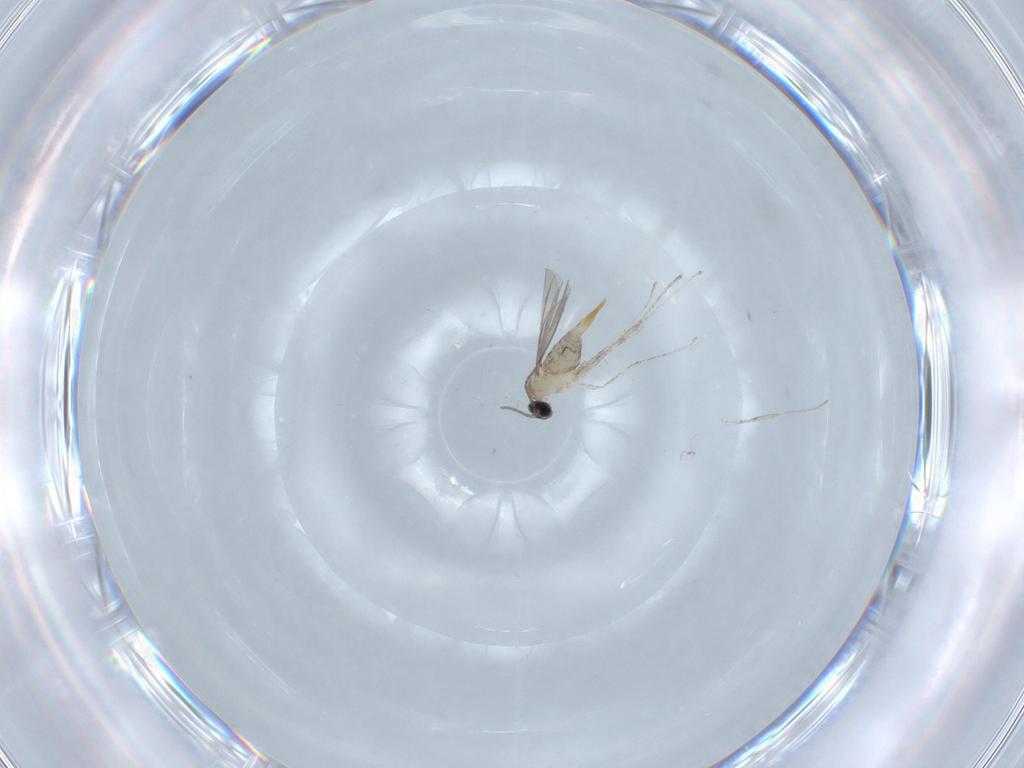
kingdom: Animalia
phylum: Arthropoda
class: Insecta
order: Diptera
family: Cecidomyiidae
